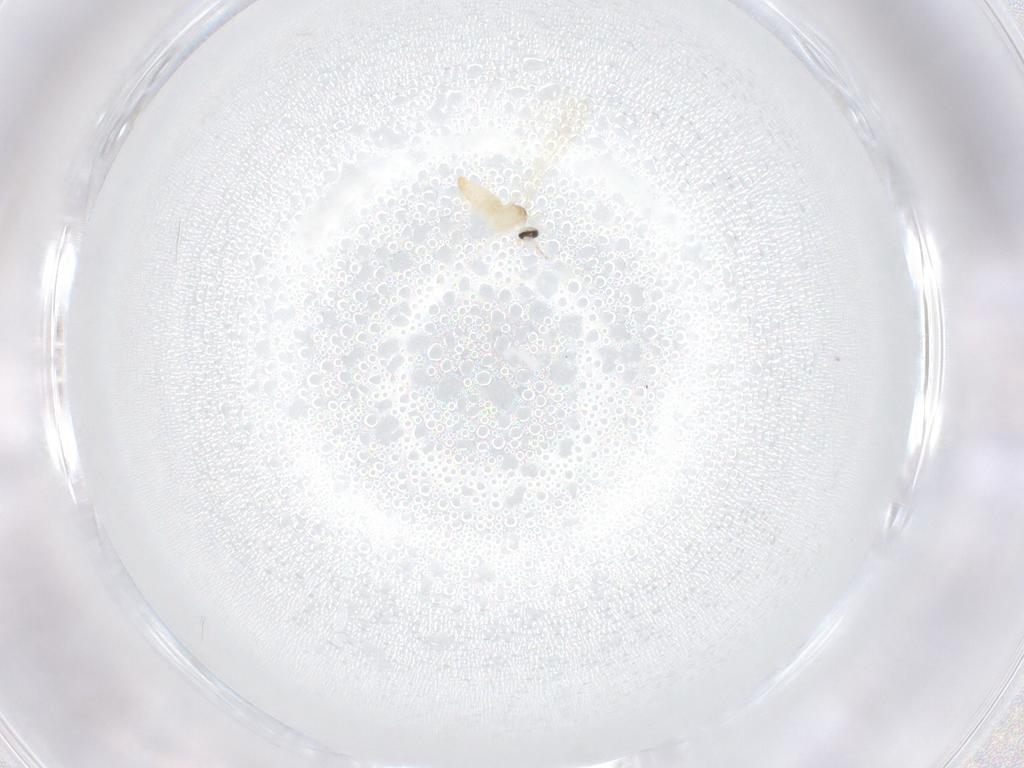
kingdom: Animalia
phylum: Arthropoda
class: Insecta
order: Diptera
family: Cecidomyiidae
